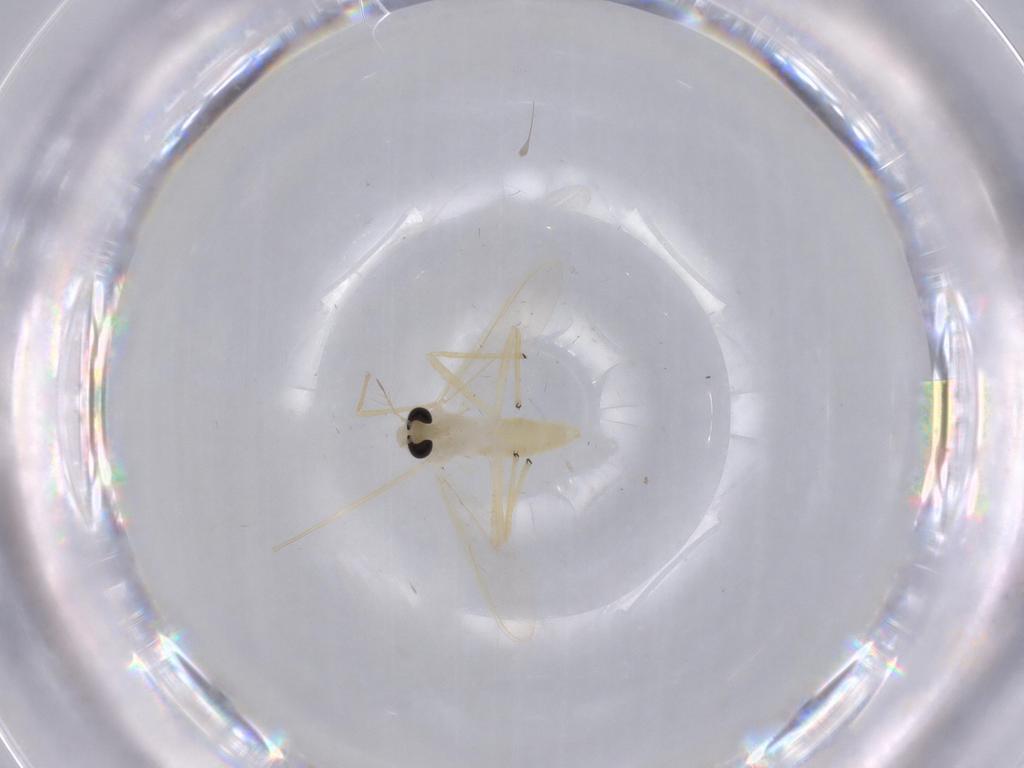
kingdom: Animalia
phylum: Arthropoda
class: Insecta
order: Diptera
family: Chironomidae
